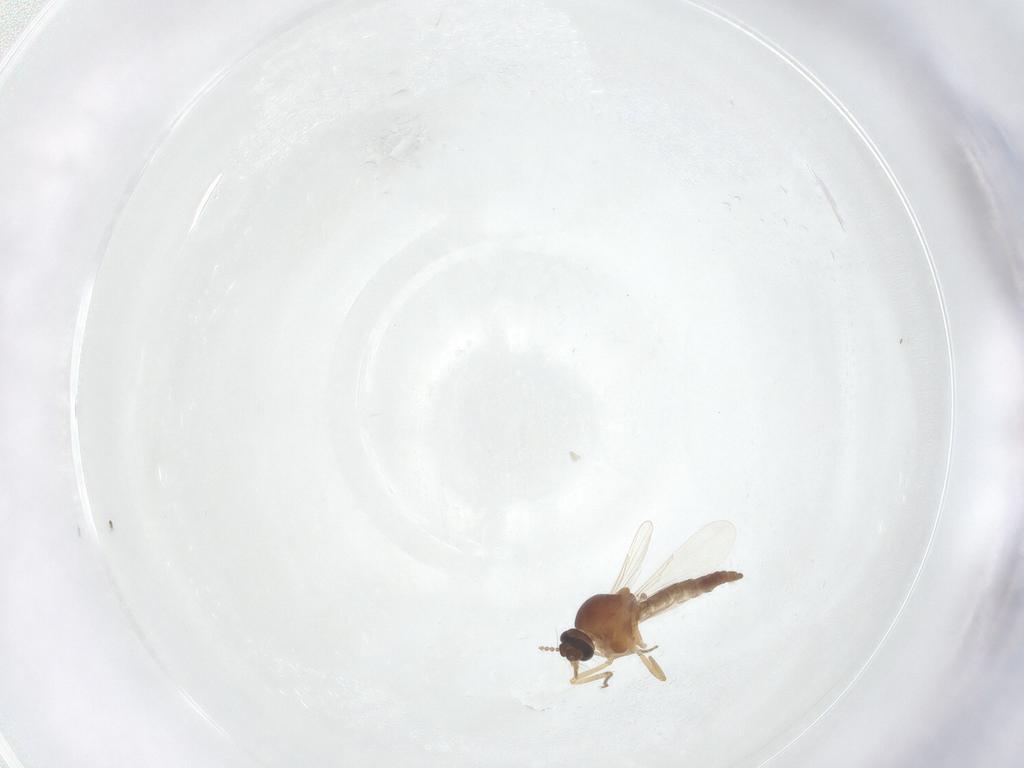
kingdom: Animalia
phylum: Arthropoda
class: Insecta
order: Diptera
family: Ceratopogonidae
